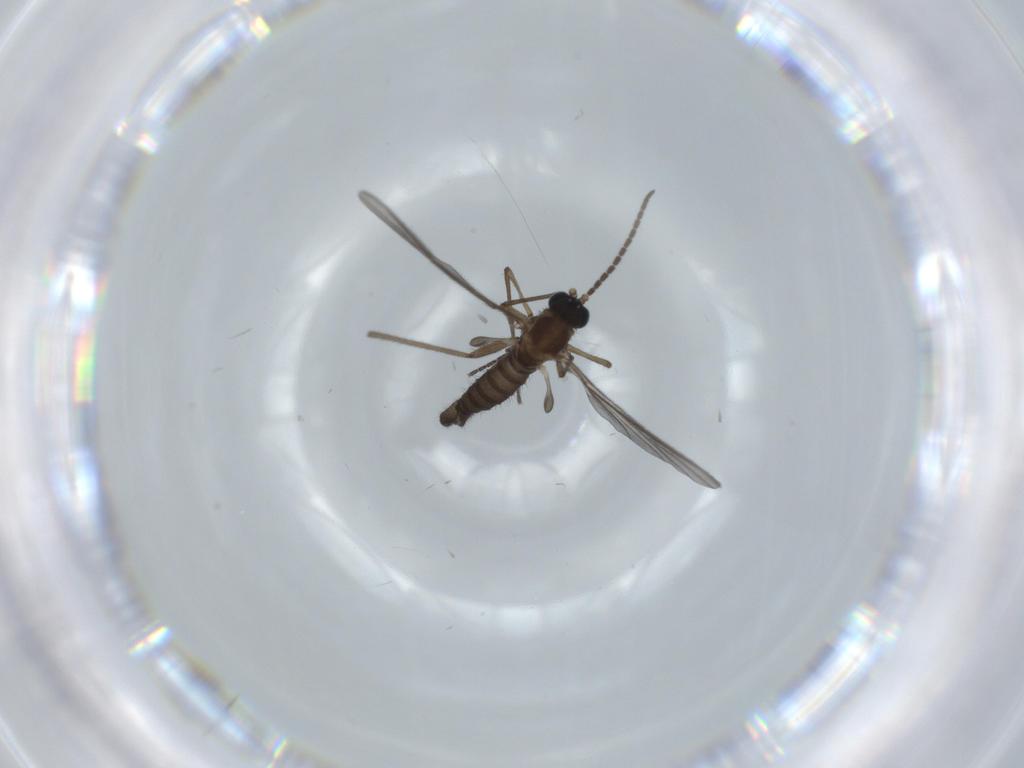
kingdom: Animalia
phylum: Arthropoda
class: Insecta
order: Diptera
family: Sciaridae
